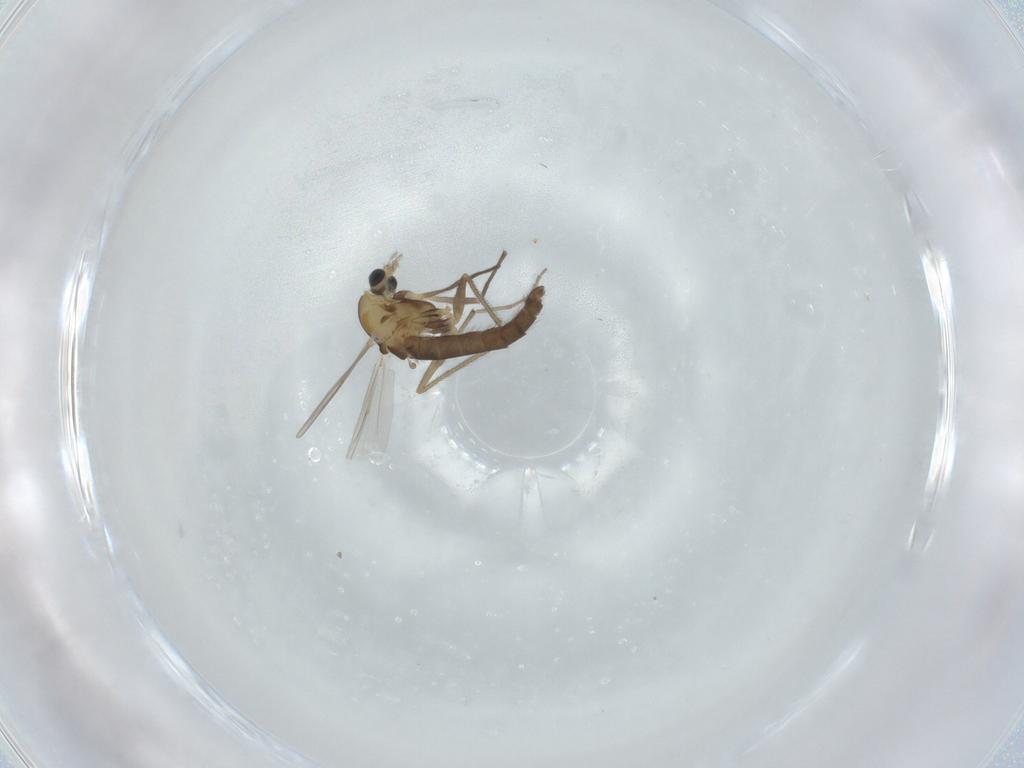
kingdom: Animalia
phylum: Arthropoda
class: Insecta
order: Diptera
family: Chironomidae
